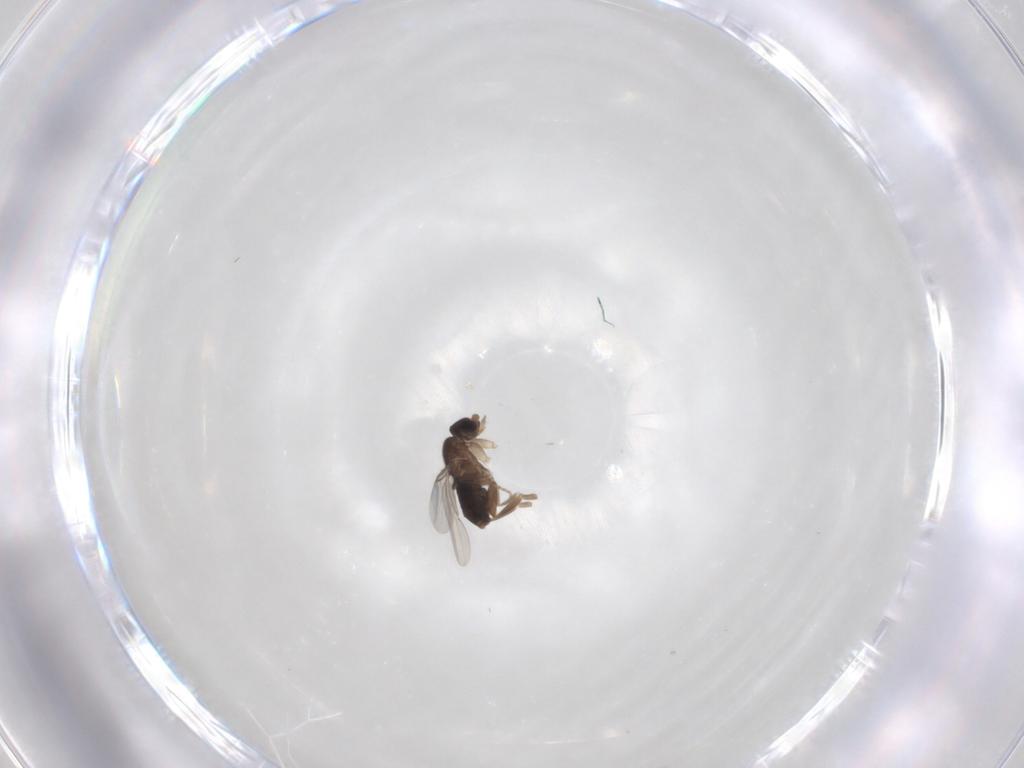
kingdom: Animalia
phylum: Arthropoda
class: Insecta
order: Diptera
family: Phoridae
